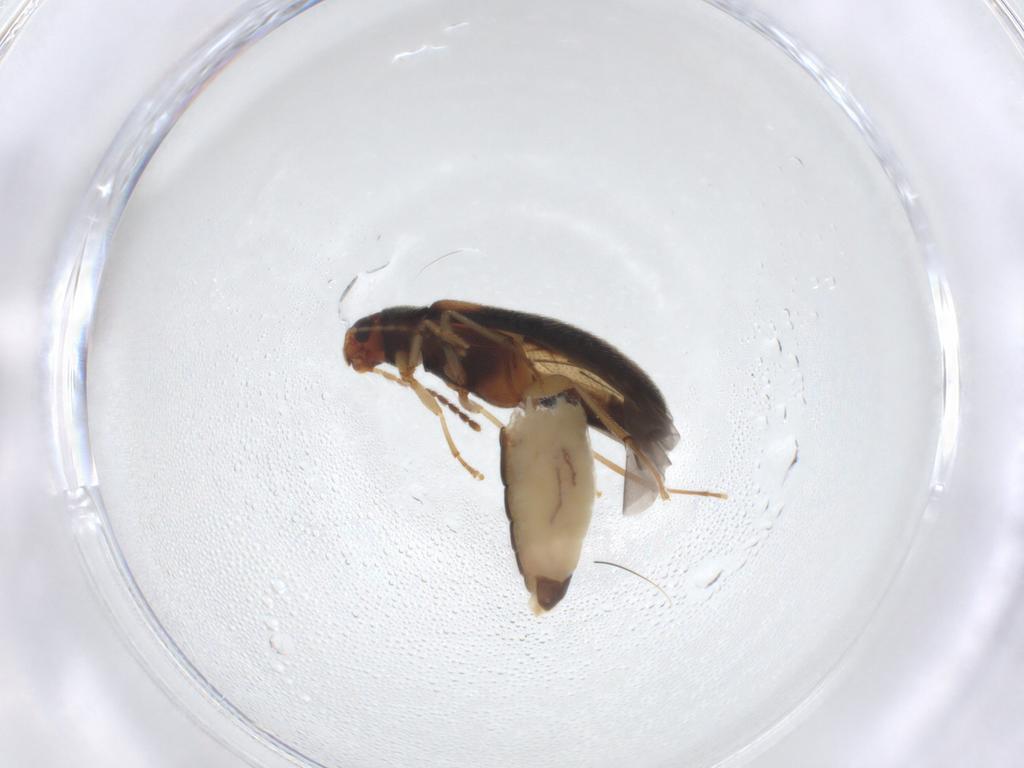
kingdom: Animalia
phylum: Arthropoda
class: Insecta
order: Coleoptera
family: Melandryidae
